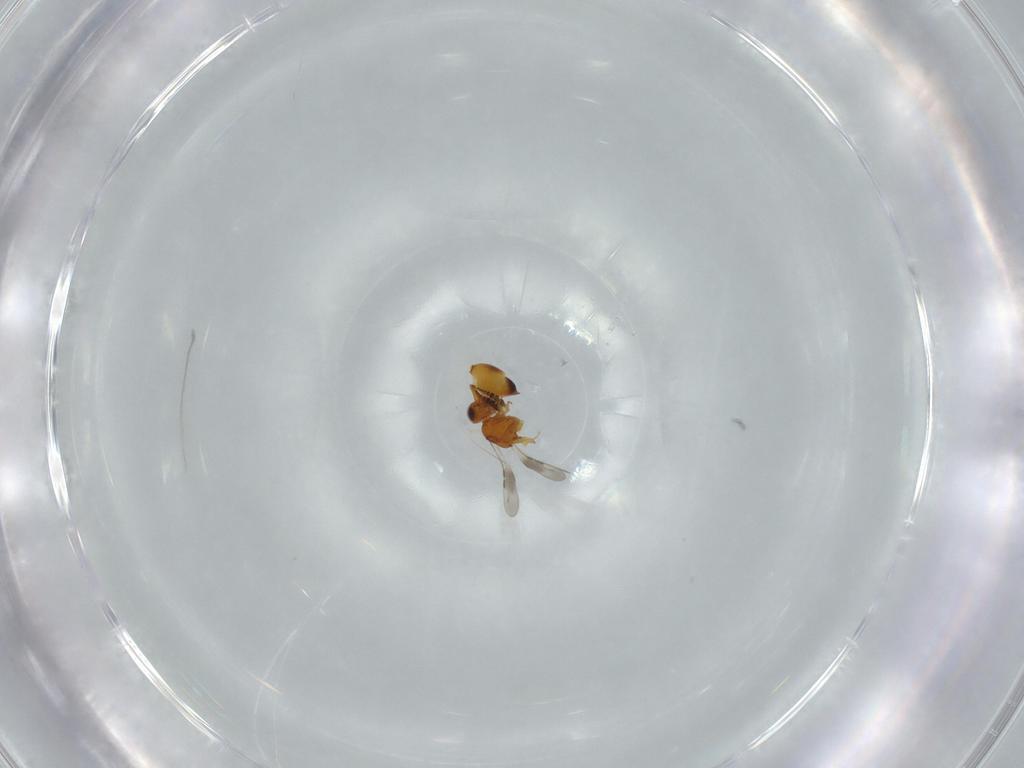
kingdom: Animalia
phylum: Arthropoda
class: Insecta
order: Hymenoptera
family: Ceraphronidae
